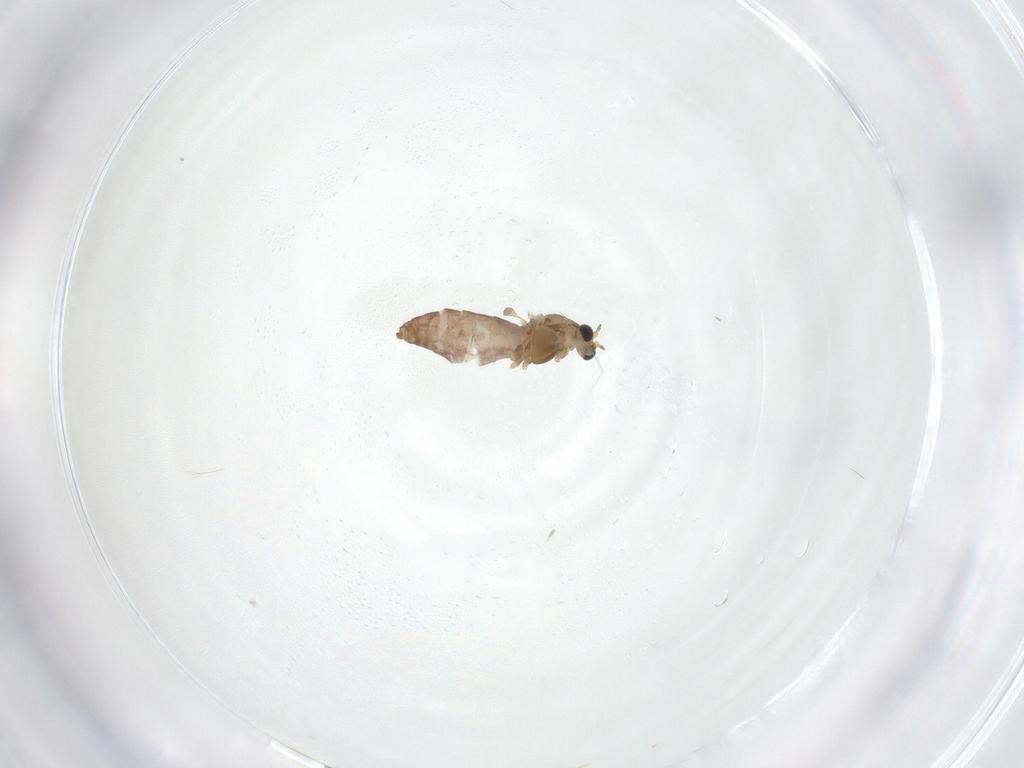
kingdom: Animalia
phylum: Arthropoda
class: Insecta
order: Diptera
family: Chironomidae
